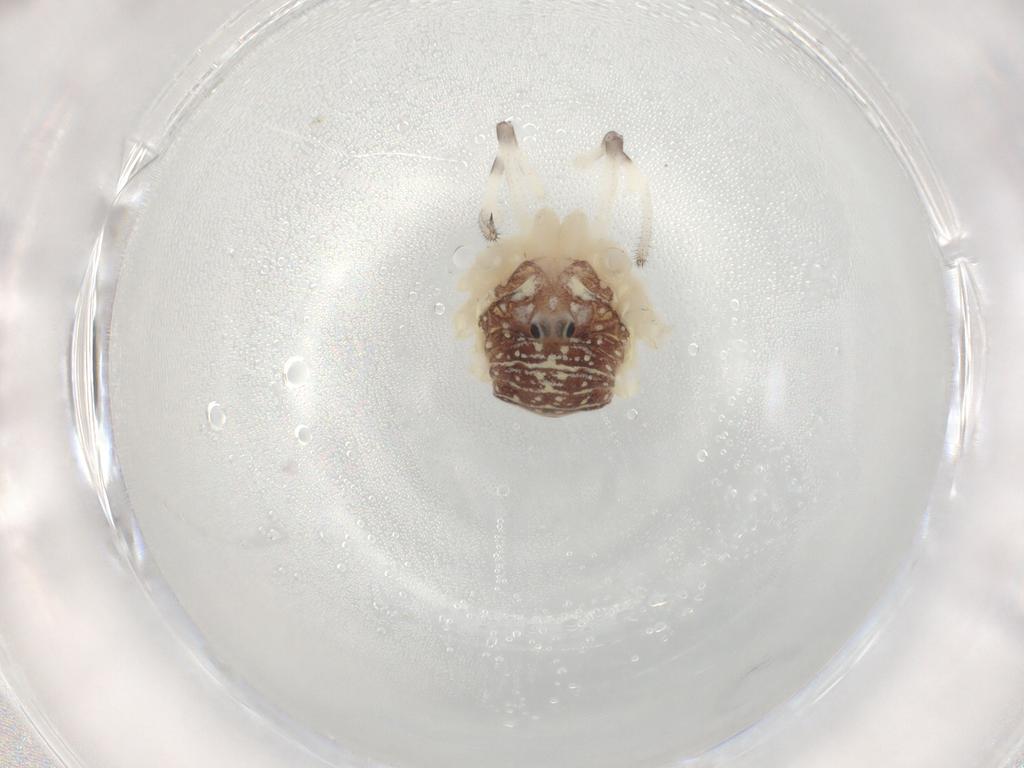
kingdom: Animalia
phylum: Arthropoda
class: Arachnida
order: Opiliones
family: Sclerosomatidae
